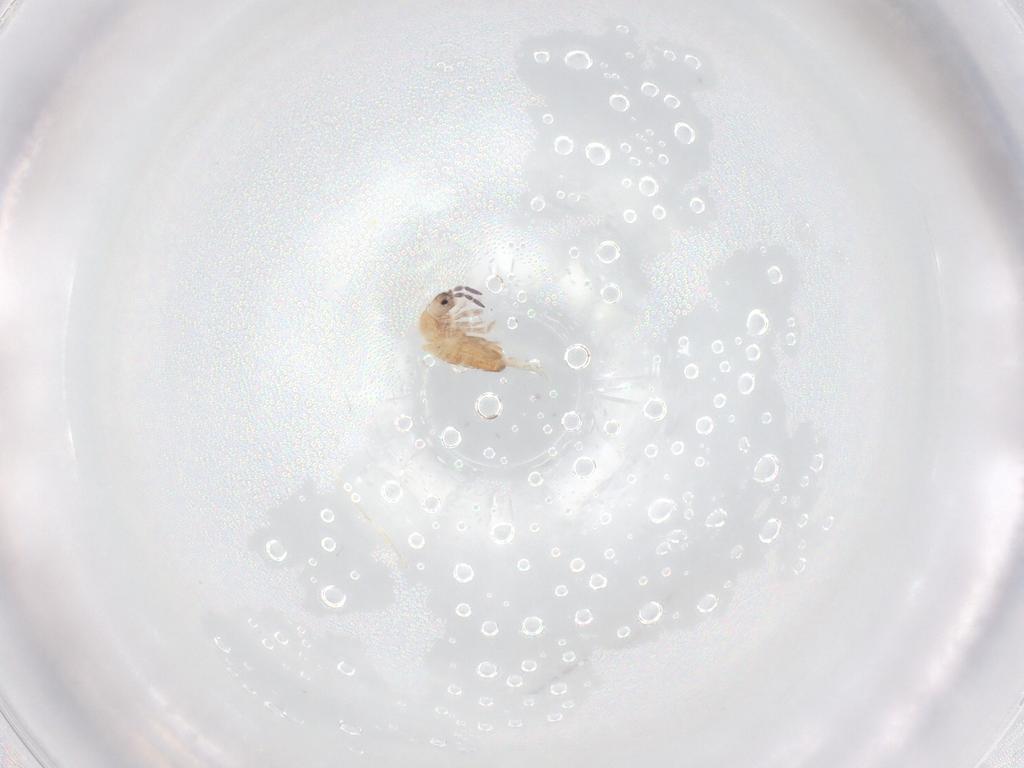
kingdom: Animalia
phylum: Arthropoda
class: Collembola
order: Entomobryomorpha
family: Entomobryidae
